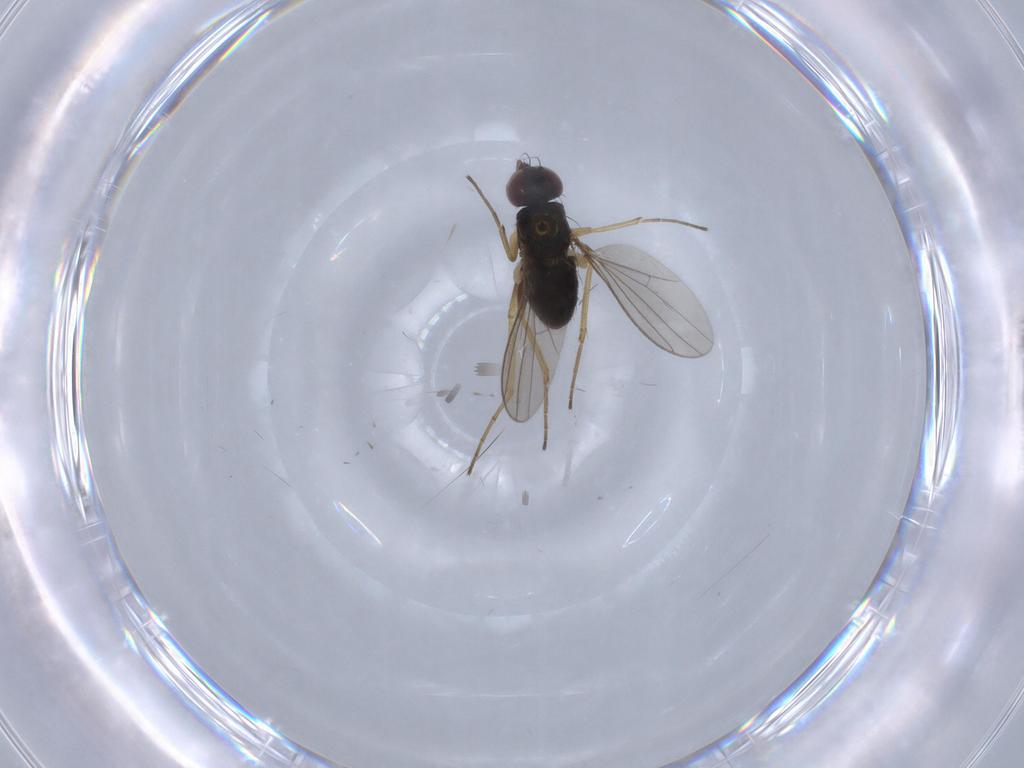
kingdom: Animalia
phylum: Arthropoda
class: Insecta
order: Diptera
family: Dolichopodidae
